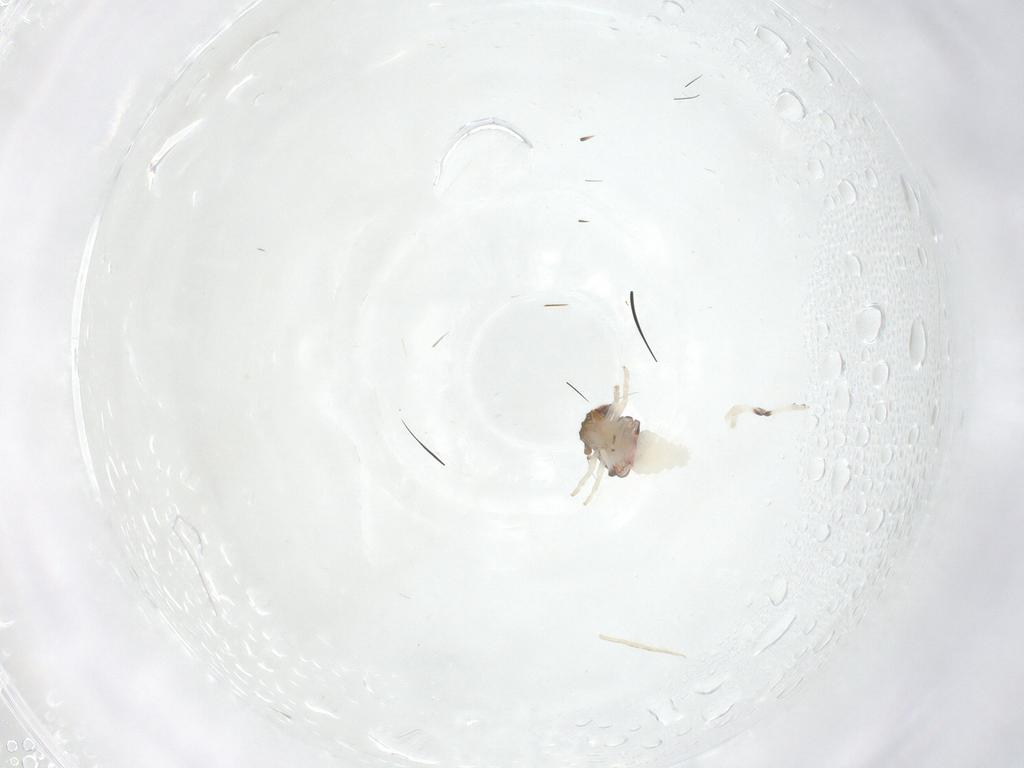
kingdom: Animalia
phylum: Arthropoda
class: Insecta
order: Hemiptera
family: Nogodinidae
